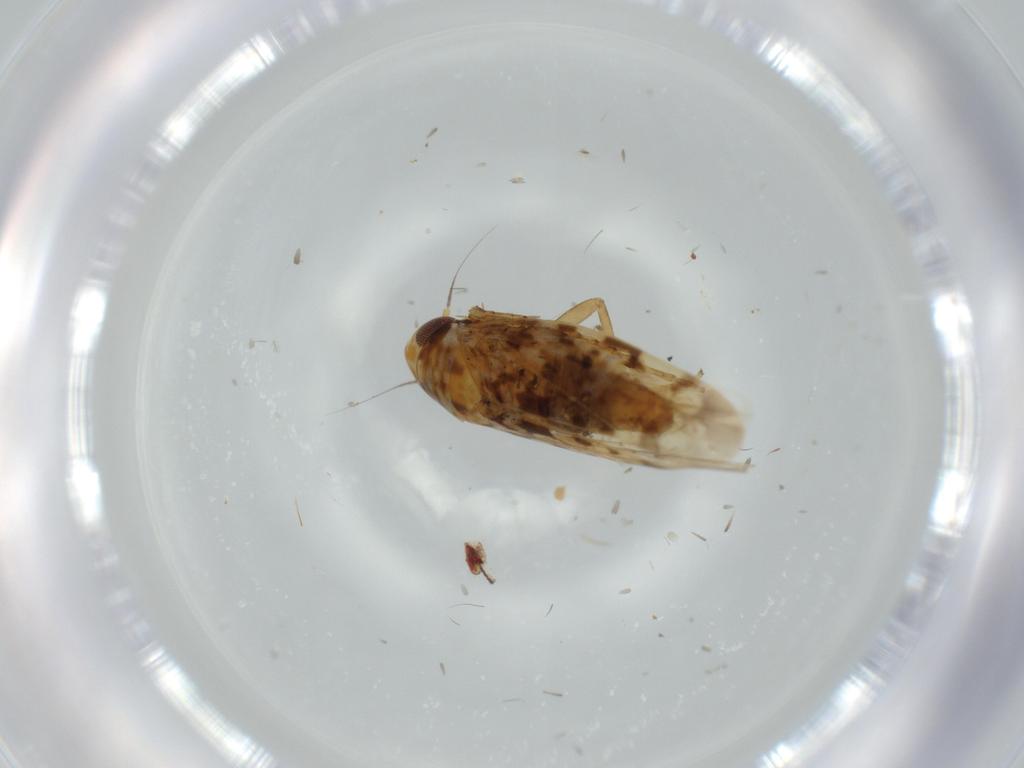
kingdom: Animalia
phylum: Arthropoda
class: Insecta
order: Hemiptera
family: Cicadellidae
